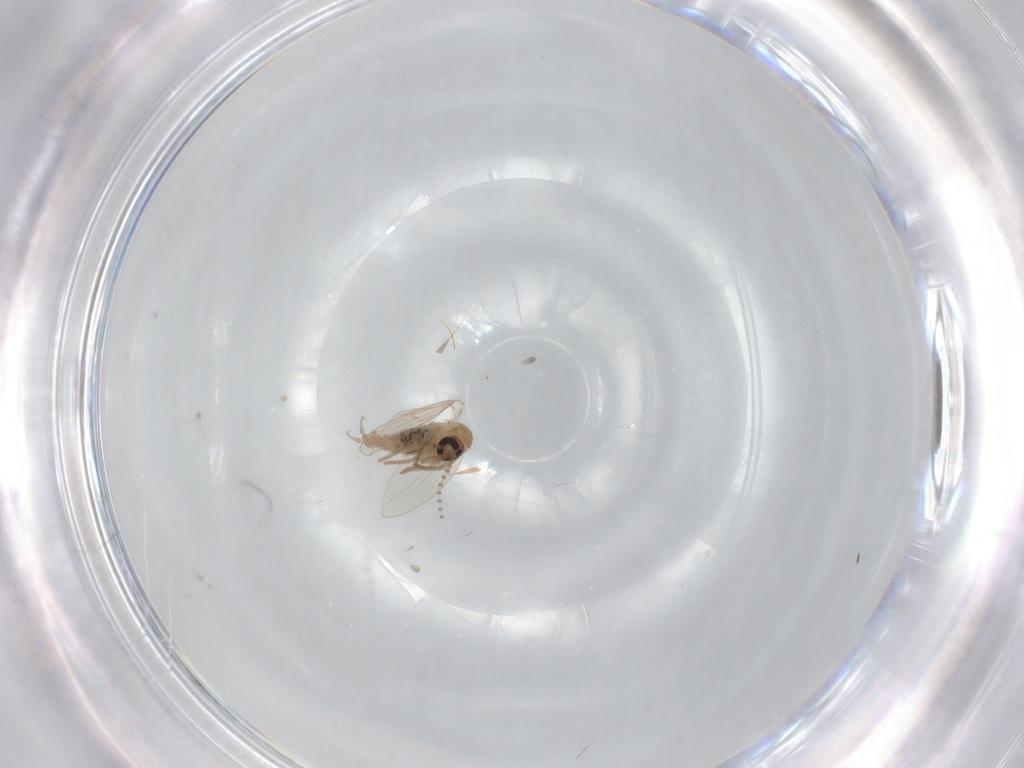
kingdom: Animalia
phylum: Arthropoda
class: Insecta
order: Diptera
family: Psychodidae
